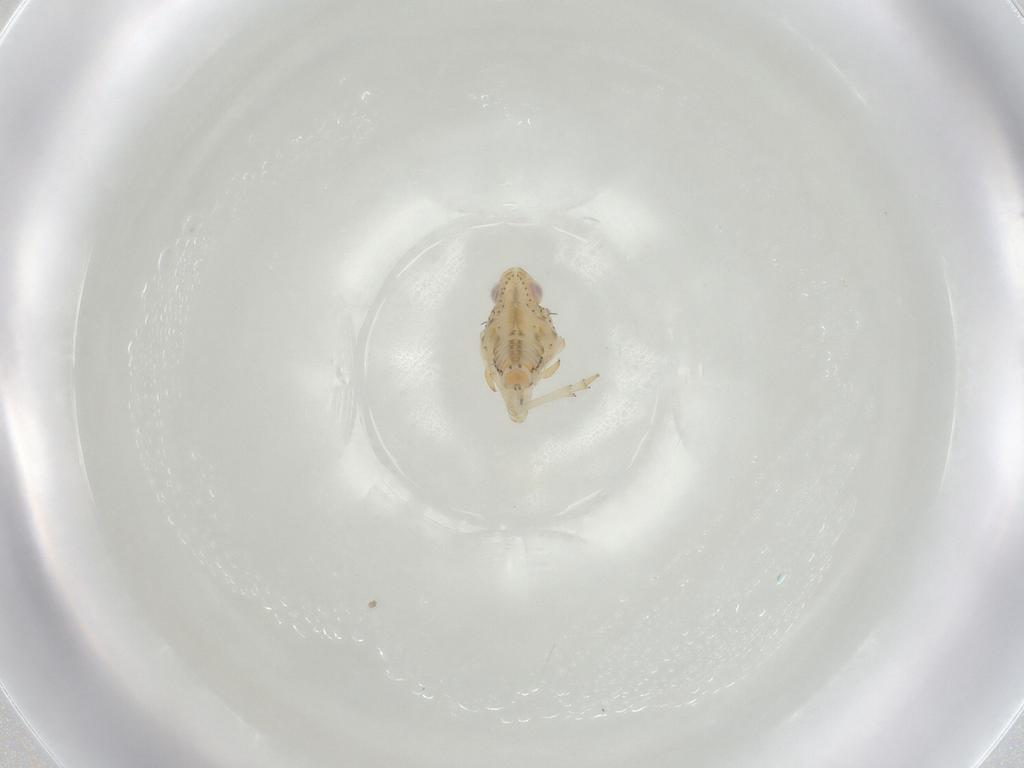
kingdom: Animalia
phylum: Arthropoda
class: Insecta
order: Hemiptera
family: Tropiduchidae
